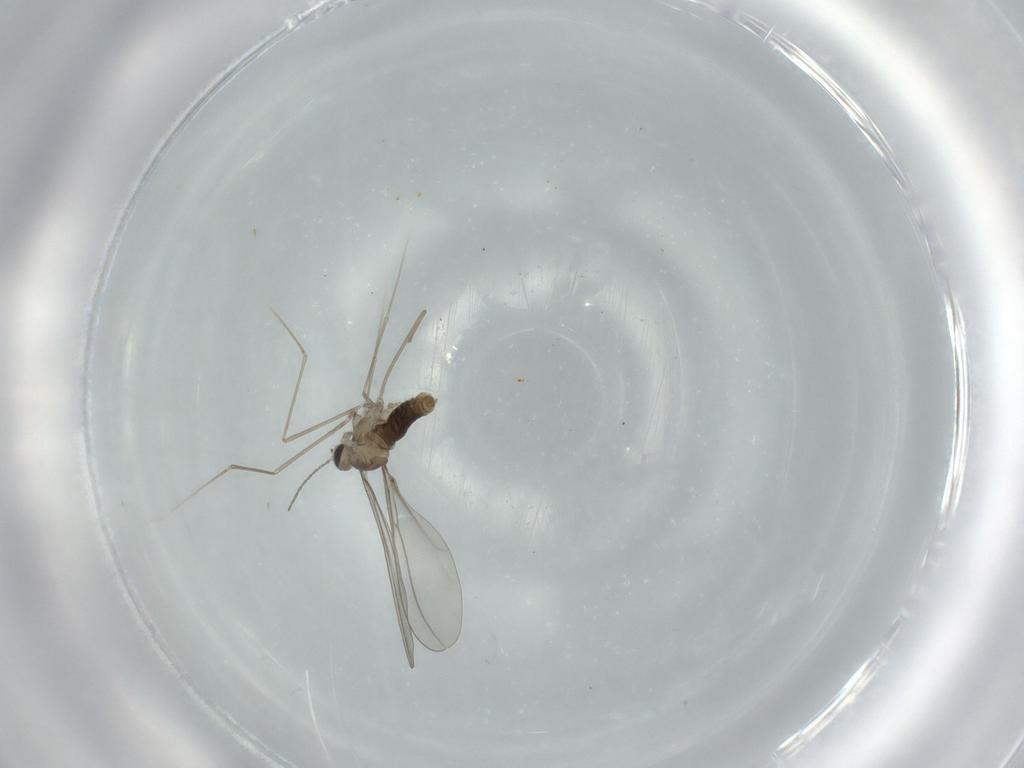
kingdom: Animalia
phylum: Arthropoda
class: Insecta
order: Diptera
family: Cecidomyiidae
